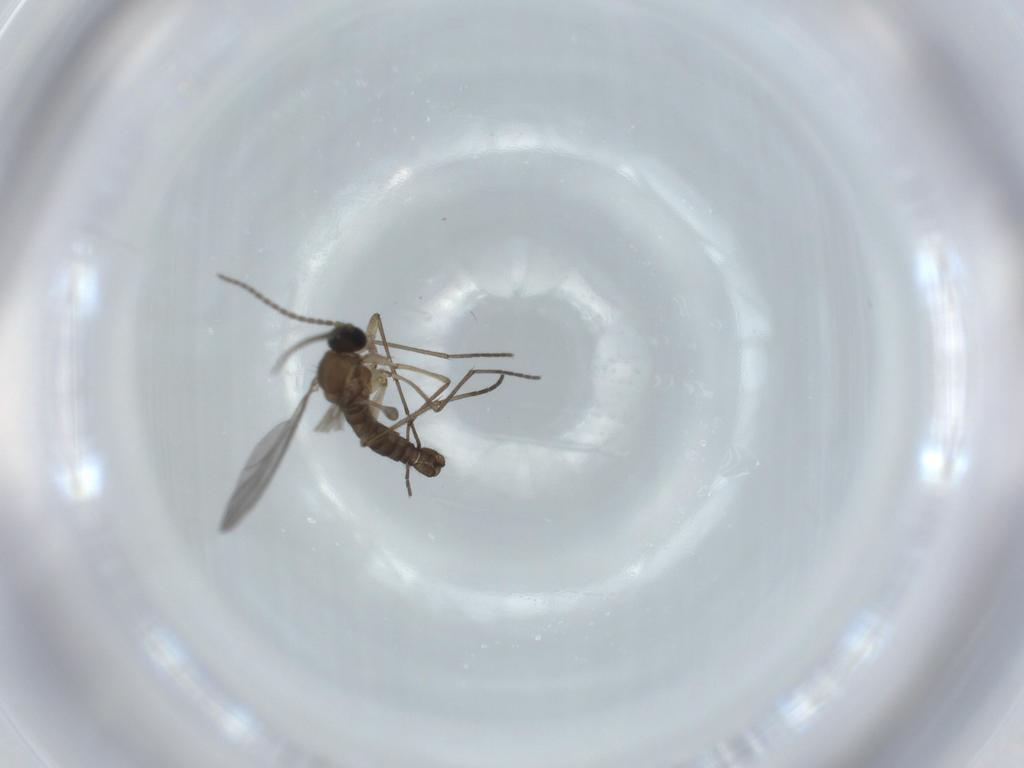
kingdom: Animalia
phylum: Arthropoda
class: Insecta
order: Diptera
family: Sciaridae
